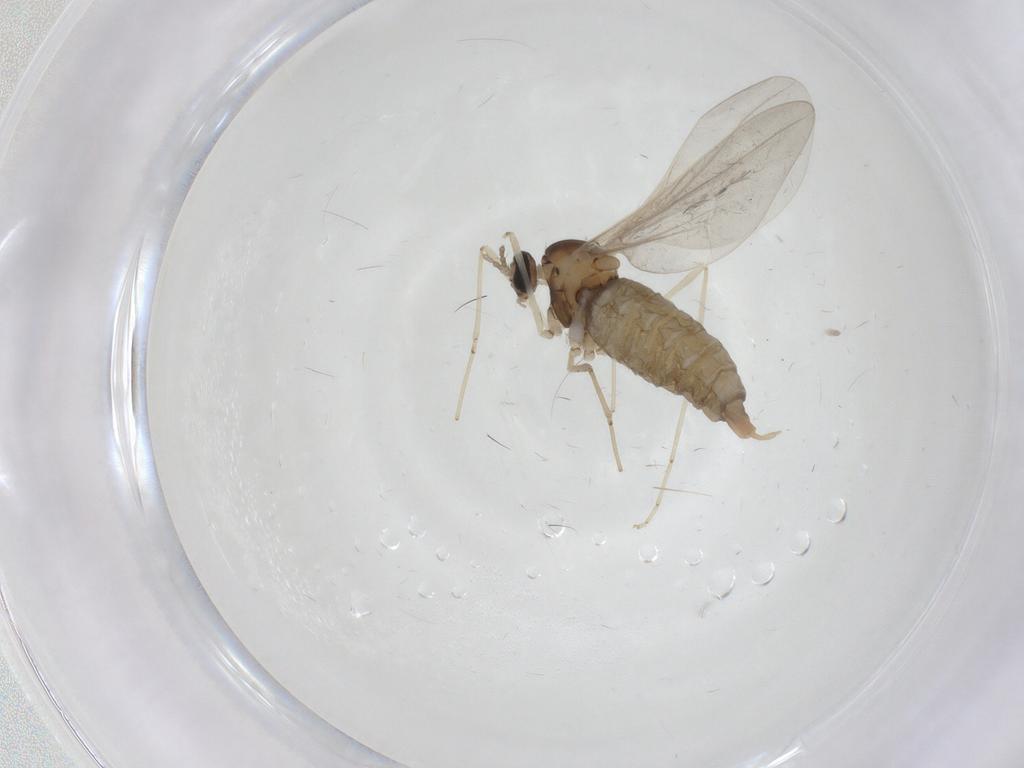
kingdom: Animalia
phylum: Arthropoda
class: Insecta
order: Diptera
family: Cecidomyiidae
